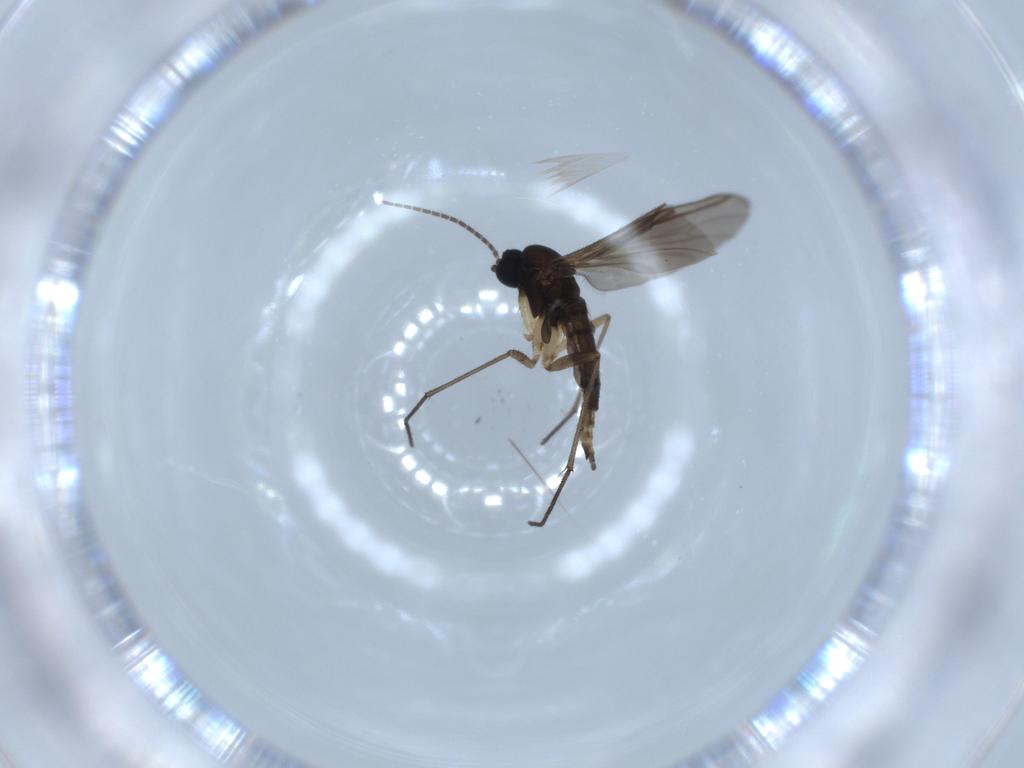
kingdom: Animalia
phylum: Arthropoda
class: Insecta
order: Diptera
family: Sciaridae
